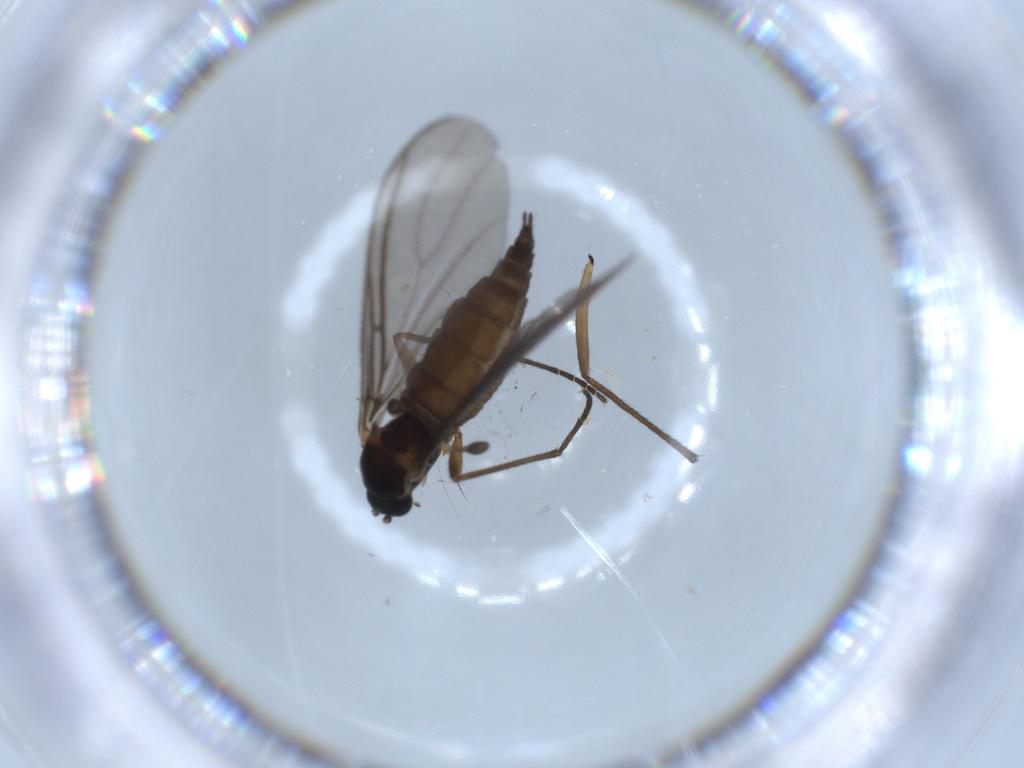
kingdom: Animalia
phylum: Arthropoda
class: Insecta
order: Diptera
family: Sciaridae
